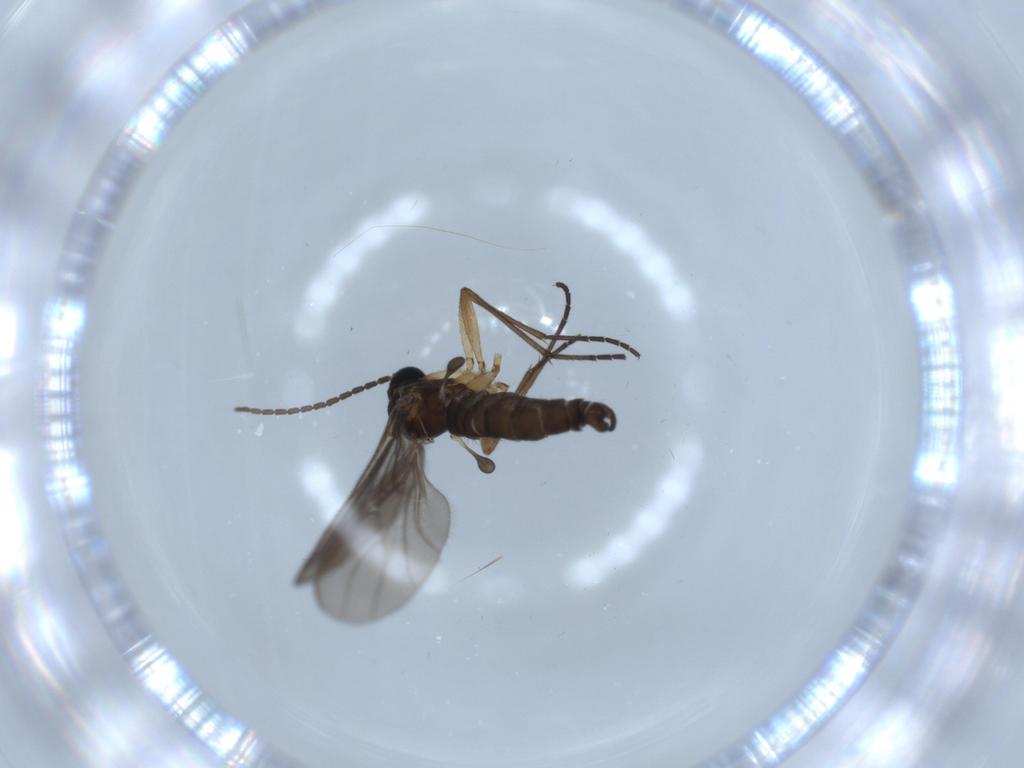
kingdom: Animalia
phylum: Arthropoda
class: Insecta
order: Diptera
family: Sciaridae
